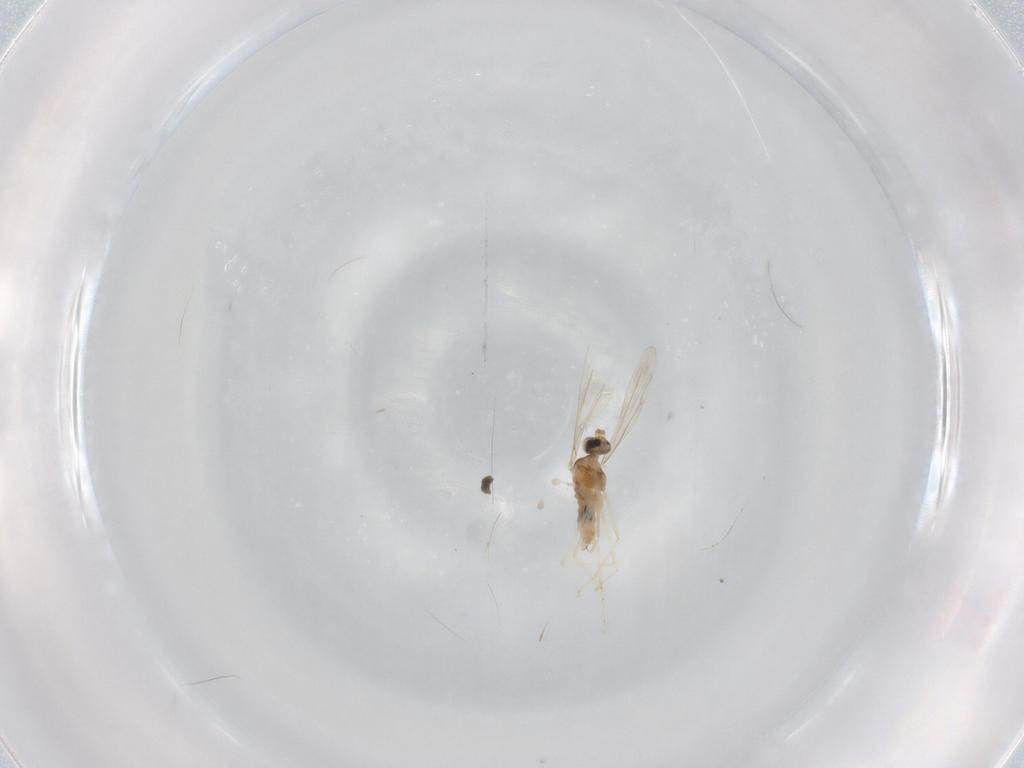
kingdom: Animalia
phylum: Arthropoda
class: Insecta
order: Diptera
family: Cecidomyiidae
